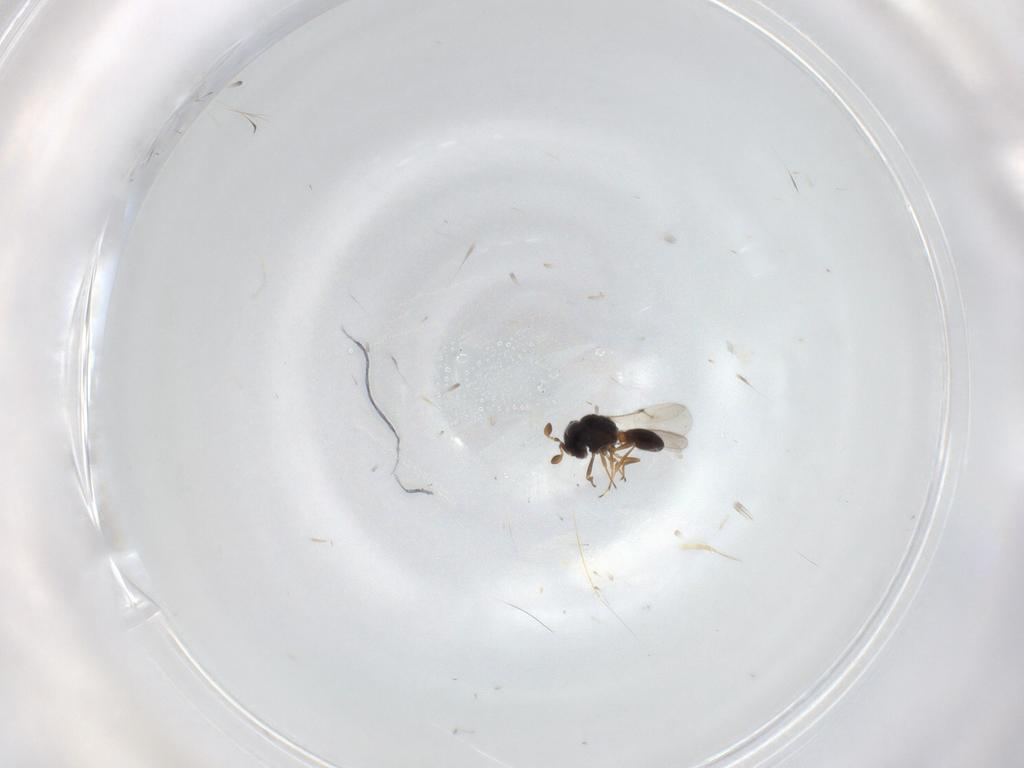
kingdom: Animalia
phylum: Arthropoda
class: Insecta
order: Hymenoptera
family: Scelionidae
